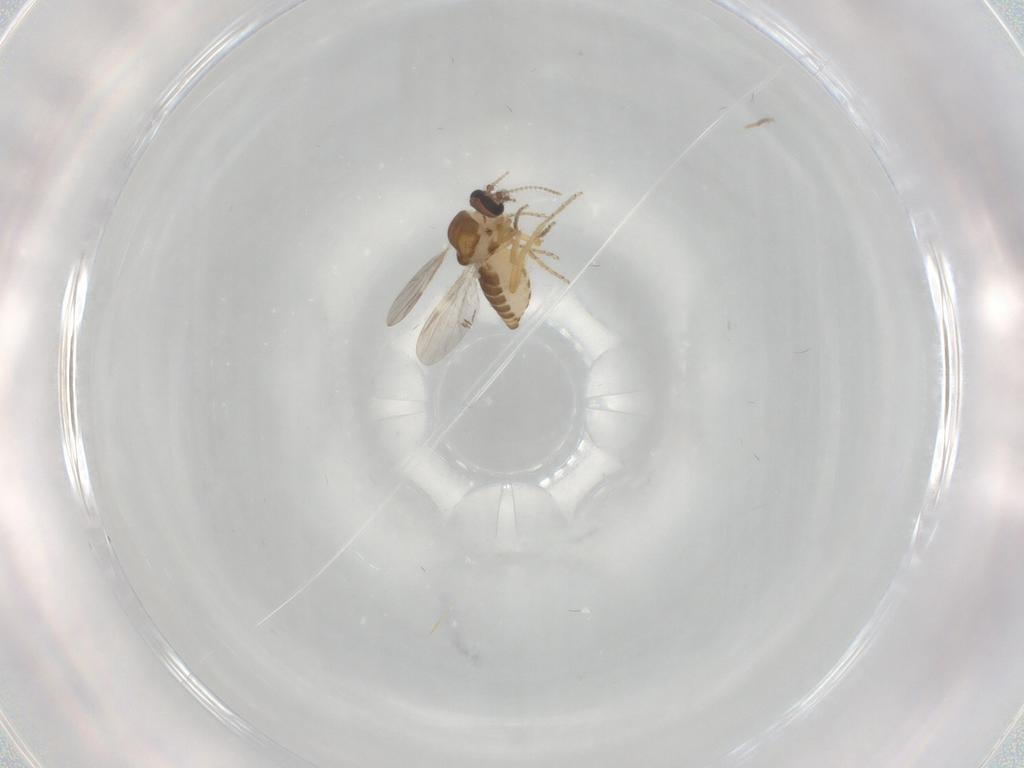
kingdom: Animalia
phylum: Arthropoda
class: Insecta
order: Diptera
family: Ceratopogonidae
